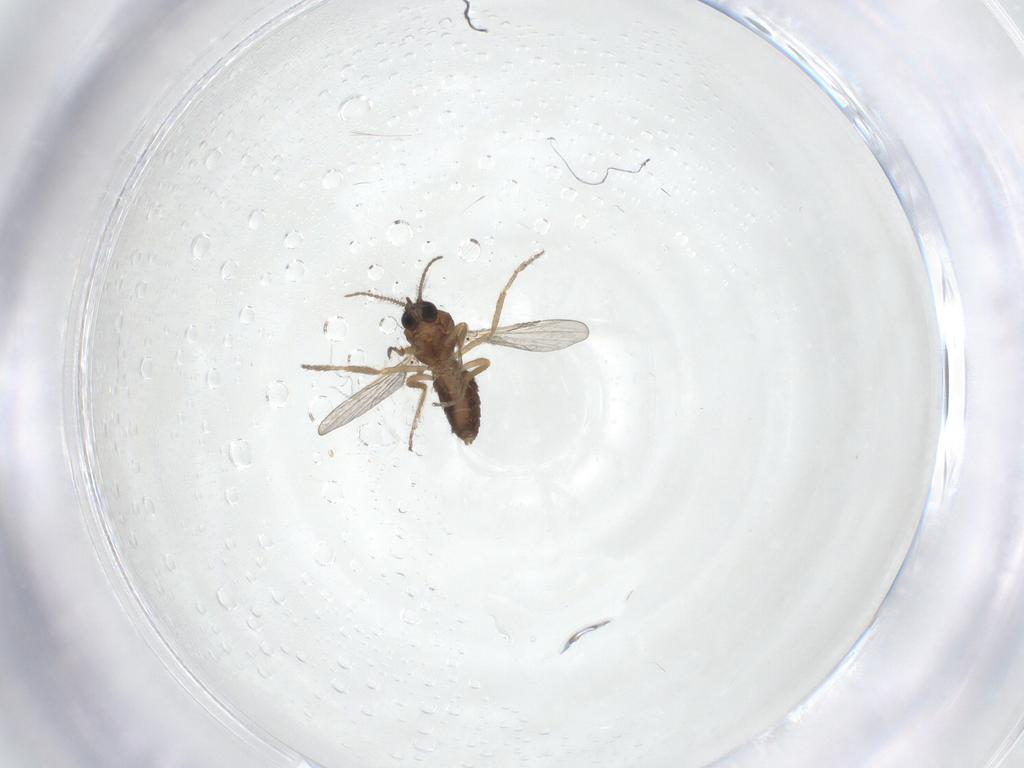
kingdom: Animalia
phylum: Arthropoda
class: Insecta
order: Diptera
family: Ceratopogonidae
